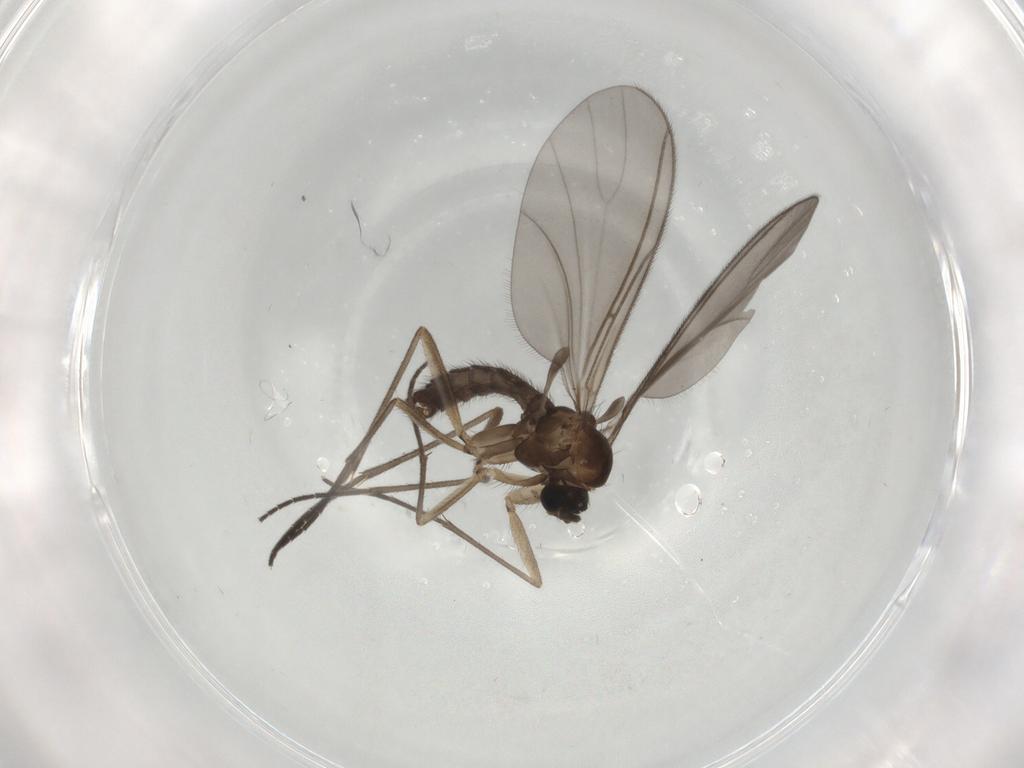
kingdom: Animalia
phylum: Arthropoda
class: Insecta
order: Diptera
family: Sciaridae
